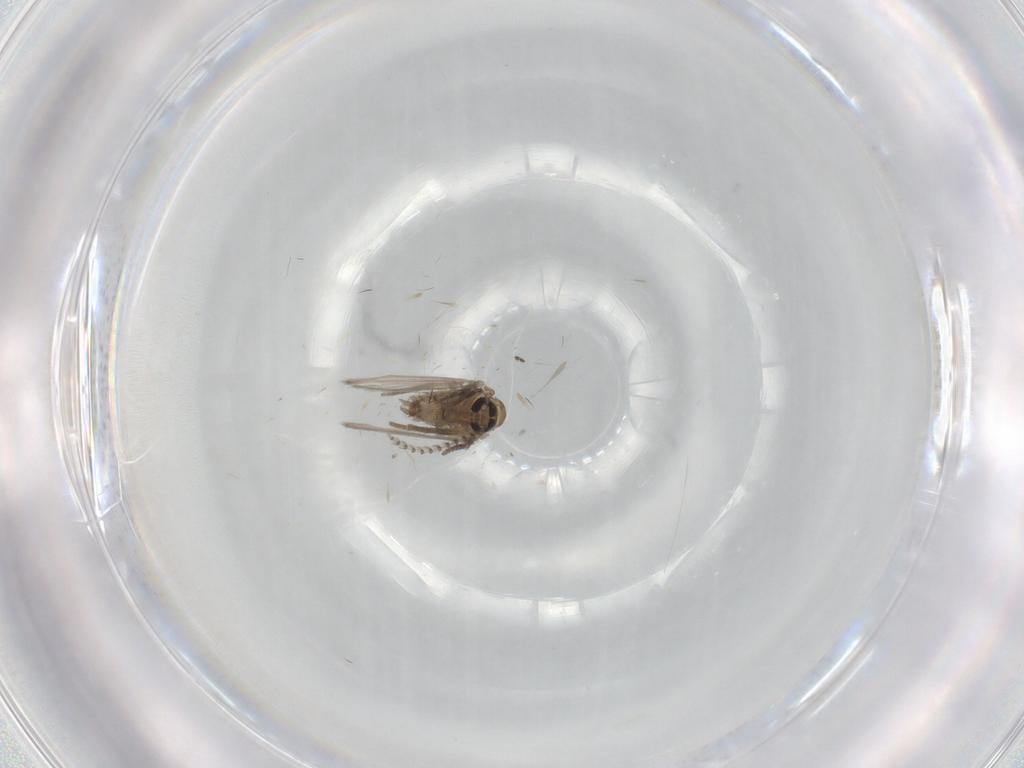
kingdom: Animalia
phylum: Arthropoda
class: Insecta
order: Diptera
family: Psychodidae
